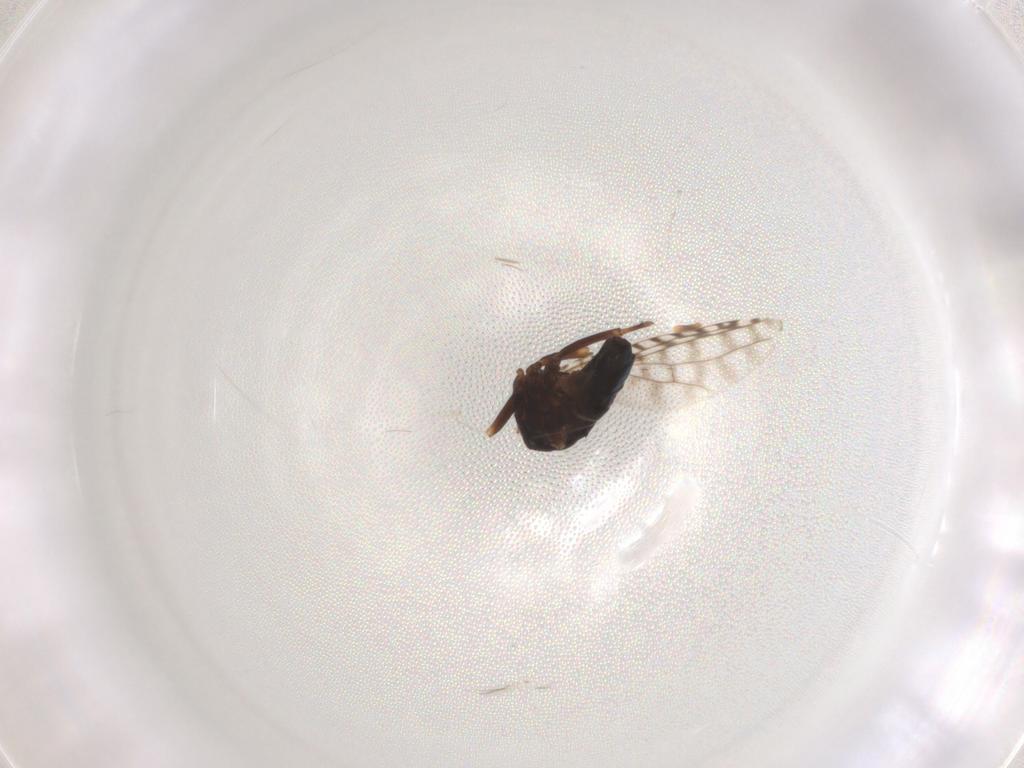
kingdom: Animalia
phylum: Arthropoda
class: Insecta
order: Diptera
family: Ephydridae
